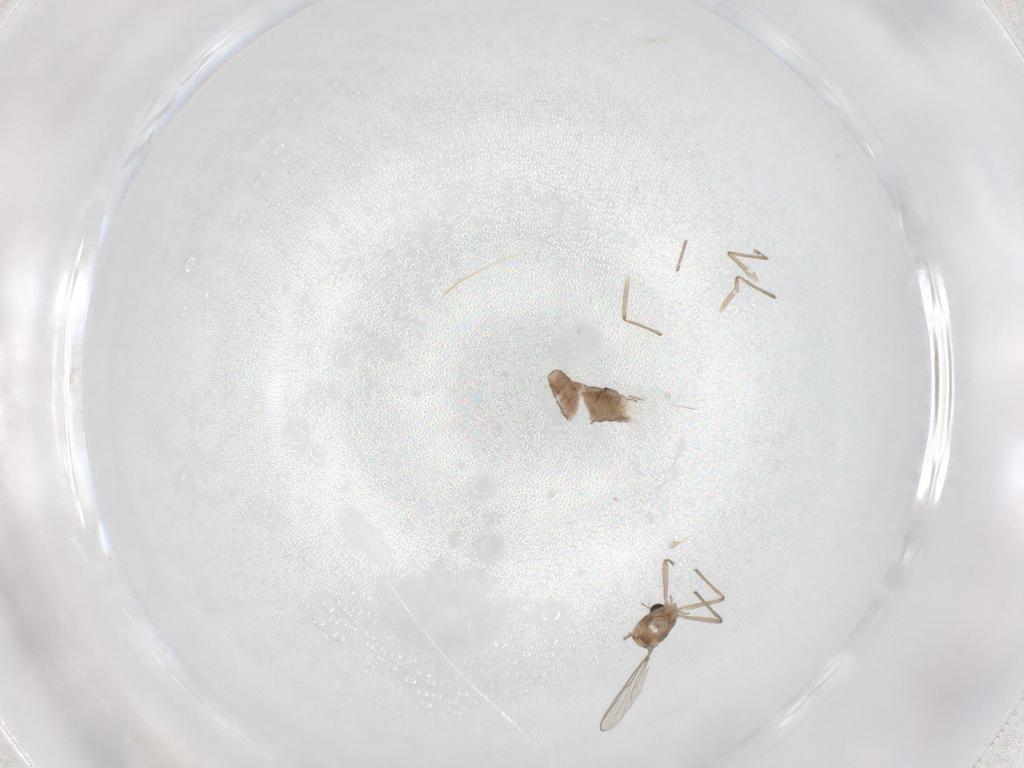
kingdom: Animalia
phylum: Arthropoda
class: Insecta
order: Diptera
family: Chironomidae
